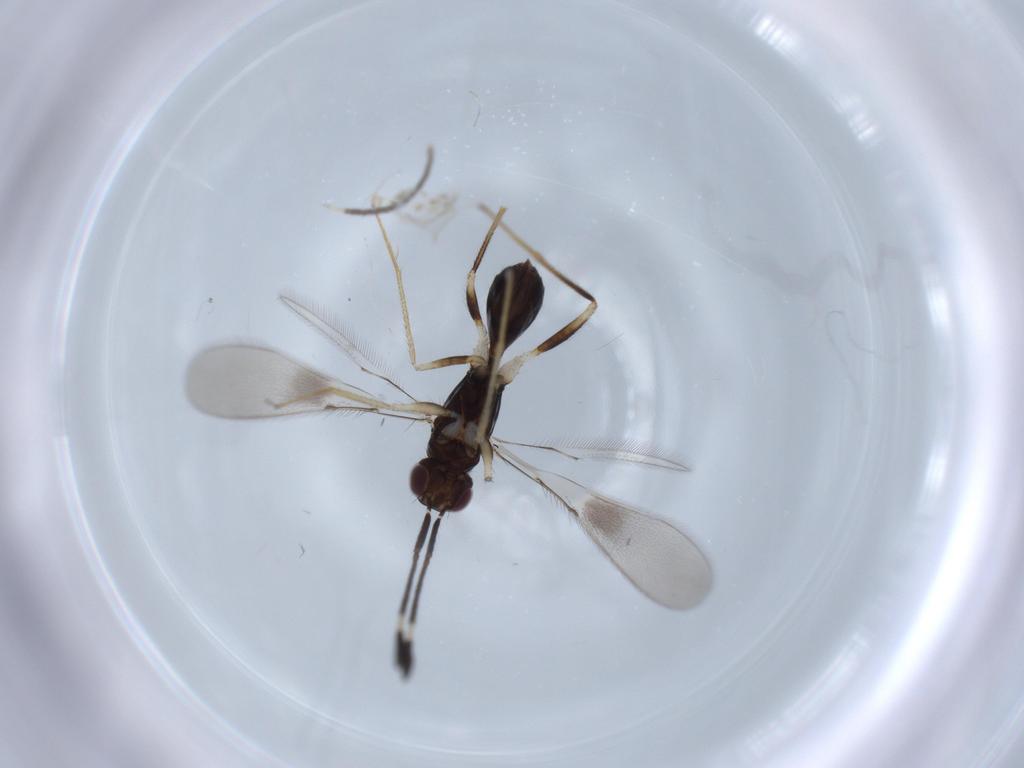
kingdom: Animalia
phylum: Arthropoda
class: Insecta
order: Hymenoptera
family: Mymaridae
